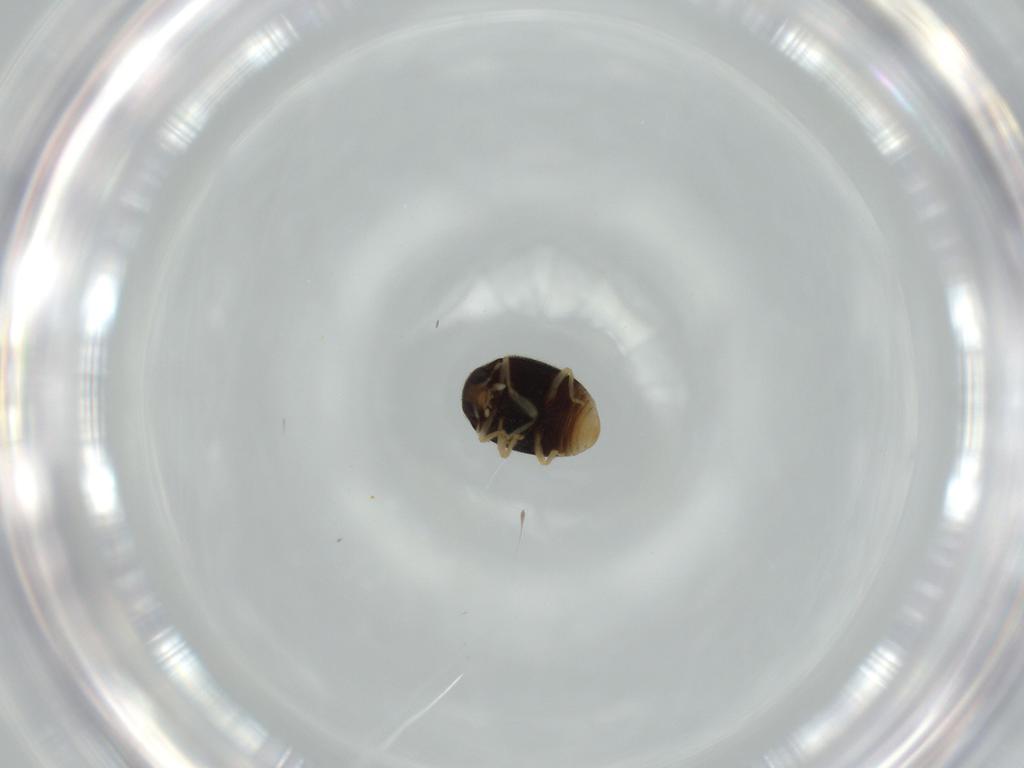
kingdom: Animalia
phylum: Arthropoda
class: Insecta
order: Coleoptera
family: Coccinellidae
